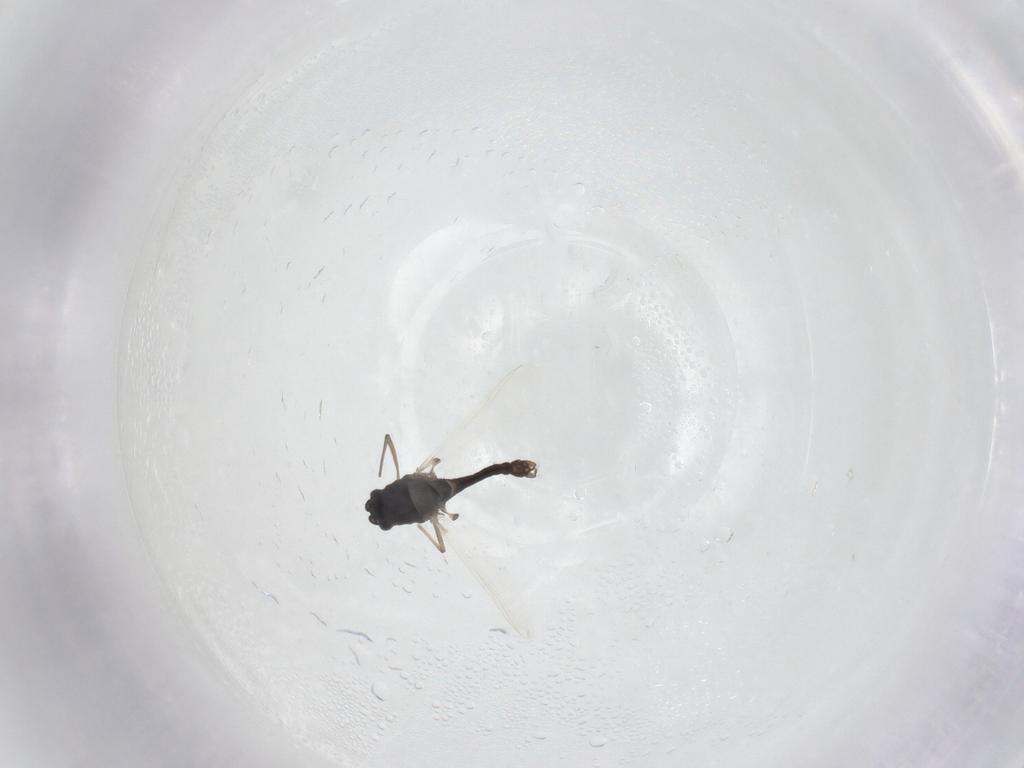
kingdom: Animalia
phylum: Arthropoda
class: Insecta
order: Diptera
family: Chironomidae
